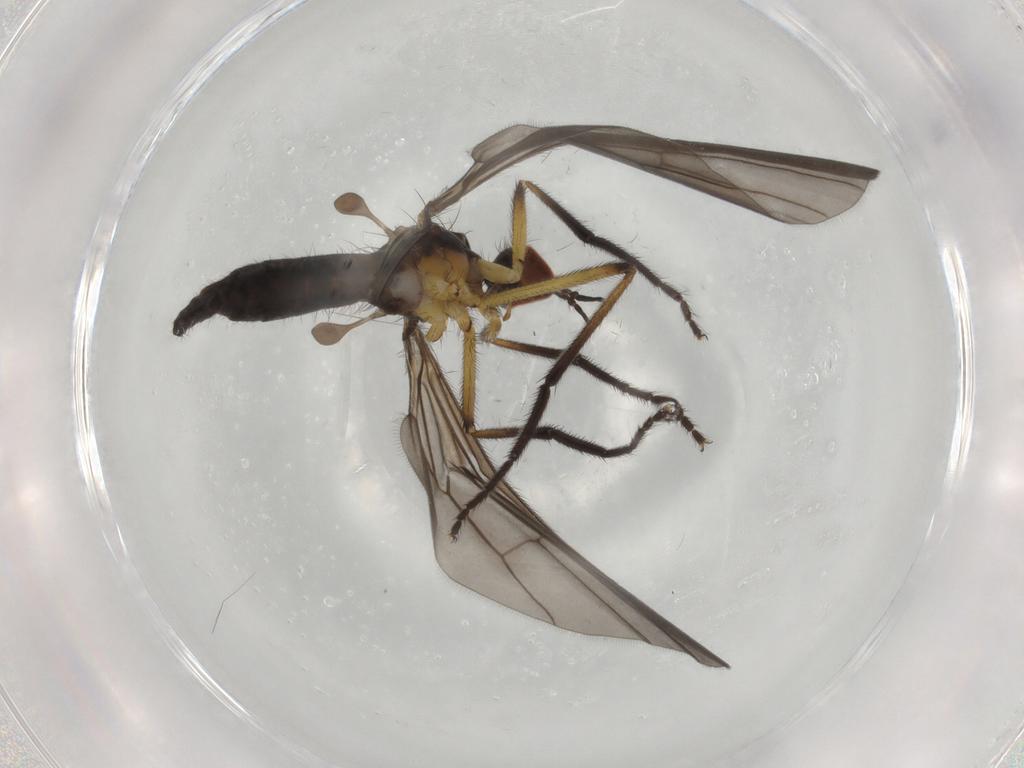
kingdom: Animalia
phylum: Arthropoda
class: Insecta
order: Diptera
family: Empididae
